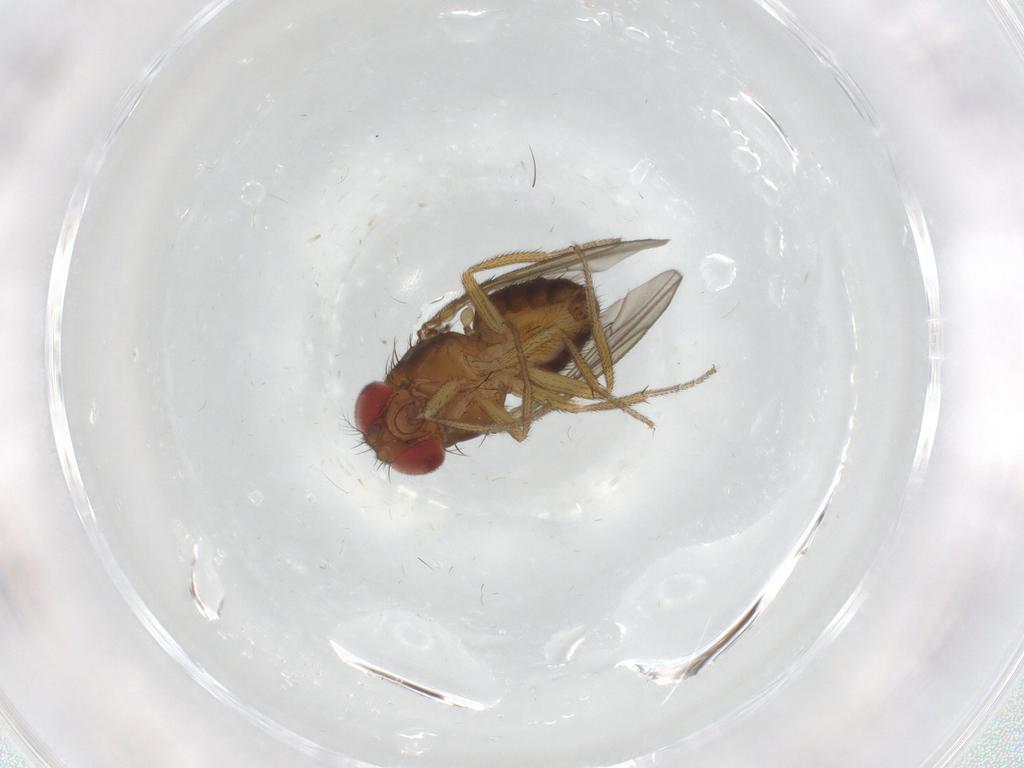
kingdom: Animalia
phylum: Arthropoda
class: Insecta
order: Diptera
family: Drosophilidae
